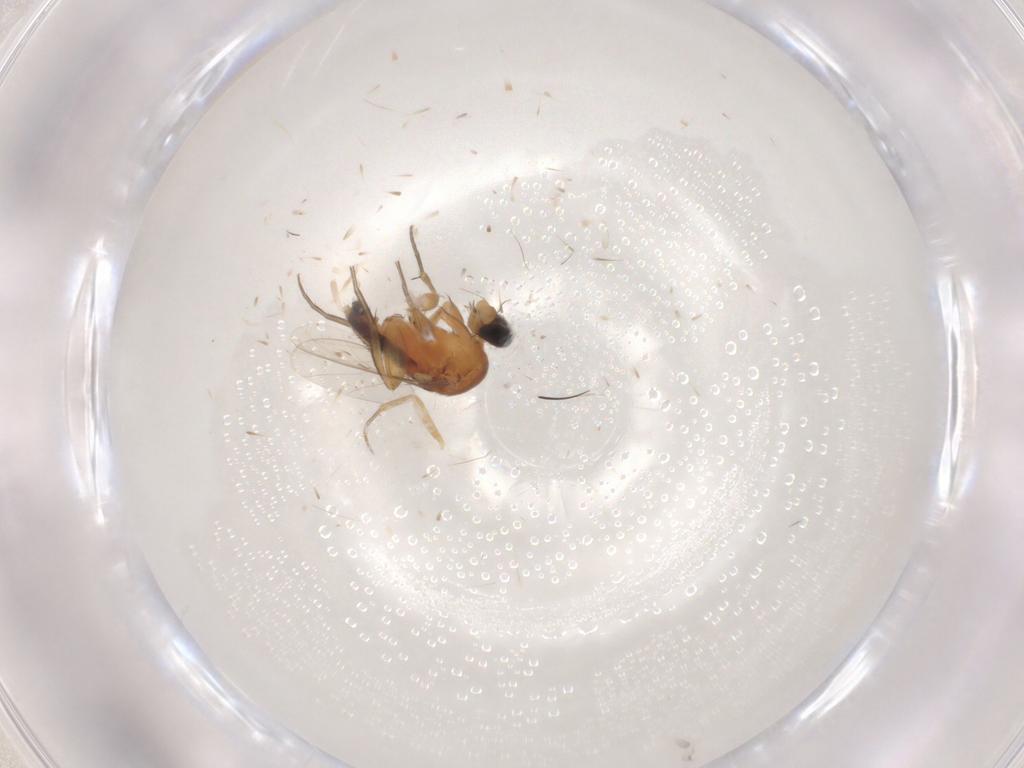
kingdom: Animalia
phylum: Arthropoda
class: Insecta
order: Diptera
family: Phoridae
